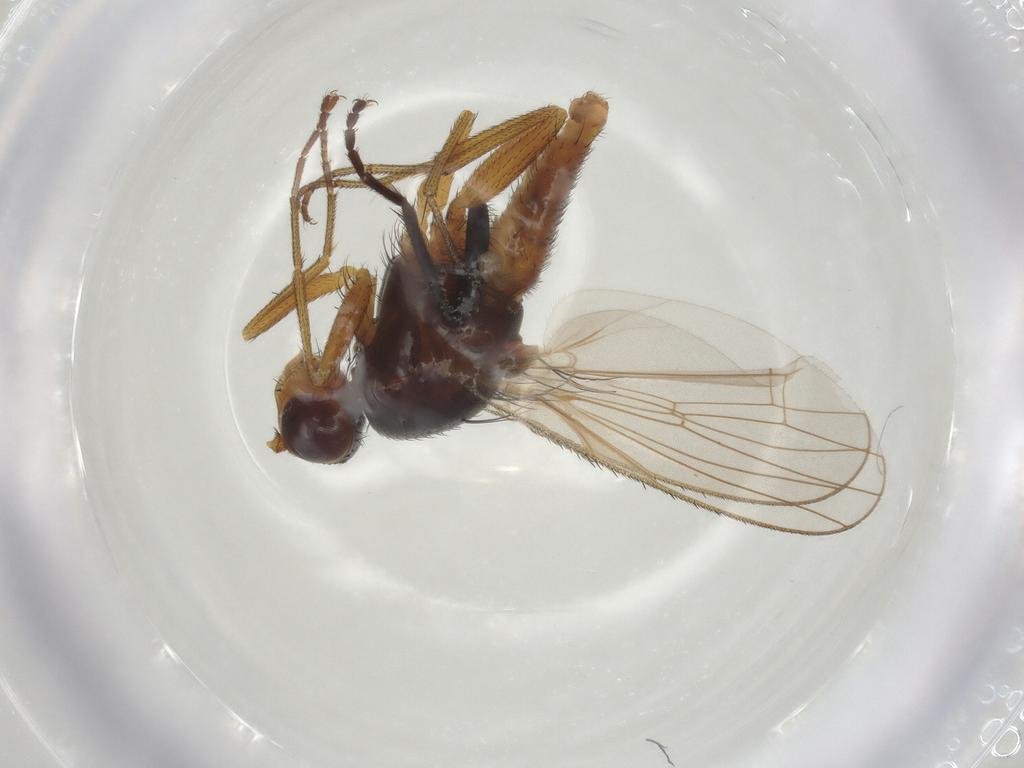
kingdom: Animalia
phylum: Arthropoda
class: Insecta
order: Diptera
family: Heleomyzidae
